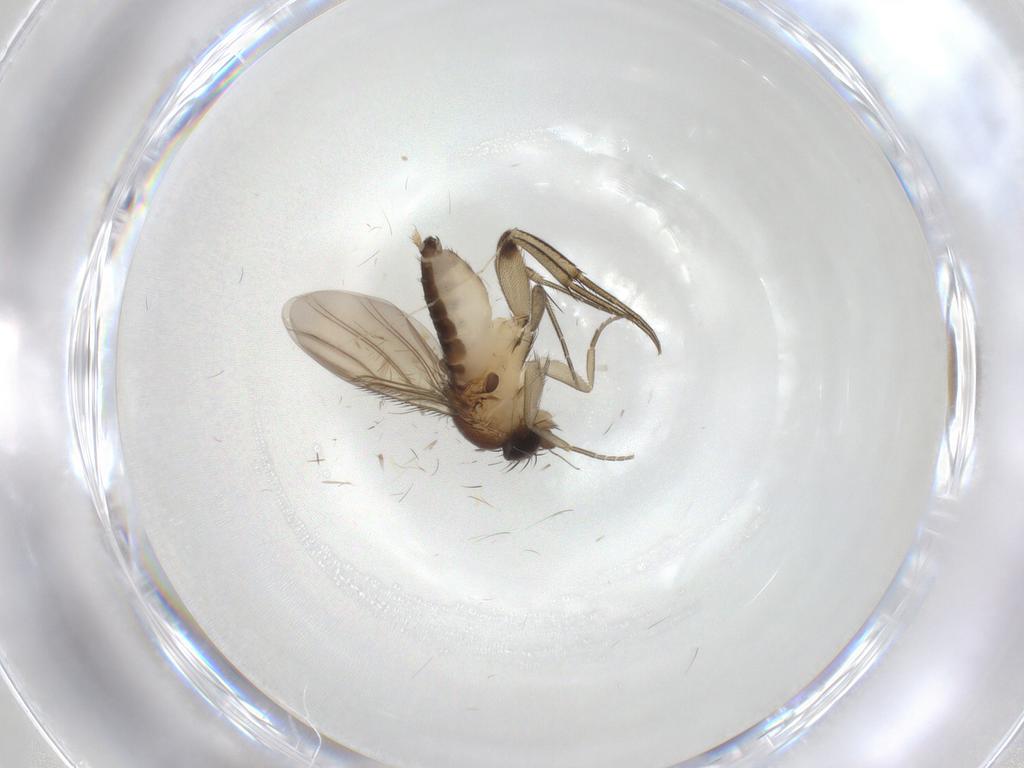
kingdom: Animalia
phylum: Arthropoda
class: Insecta
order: Diptera
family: Phoridae
